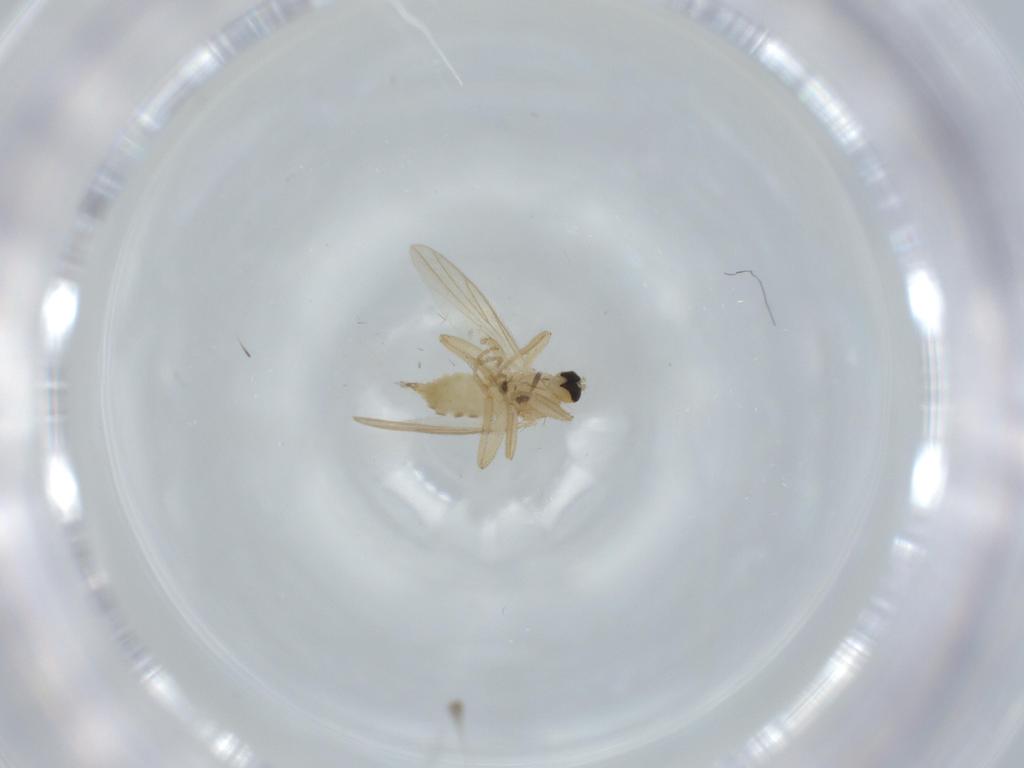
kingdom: Animalia
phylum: Arthropoda
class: Insecta
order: Diptera
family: Hybotidae
